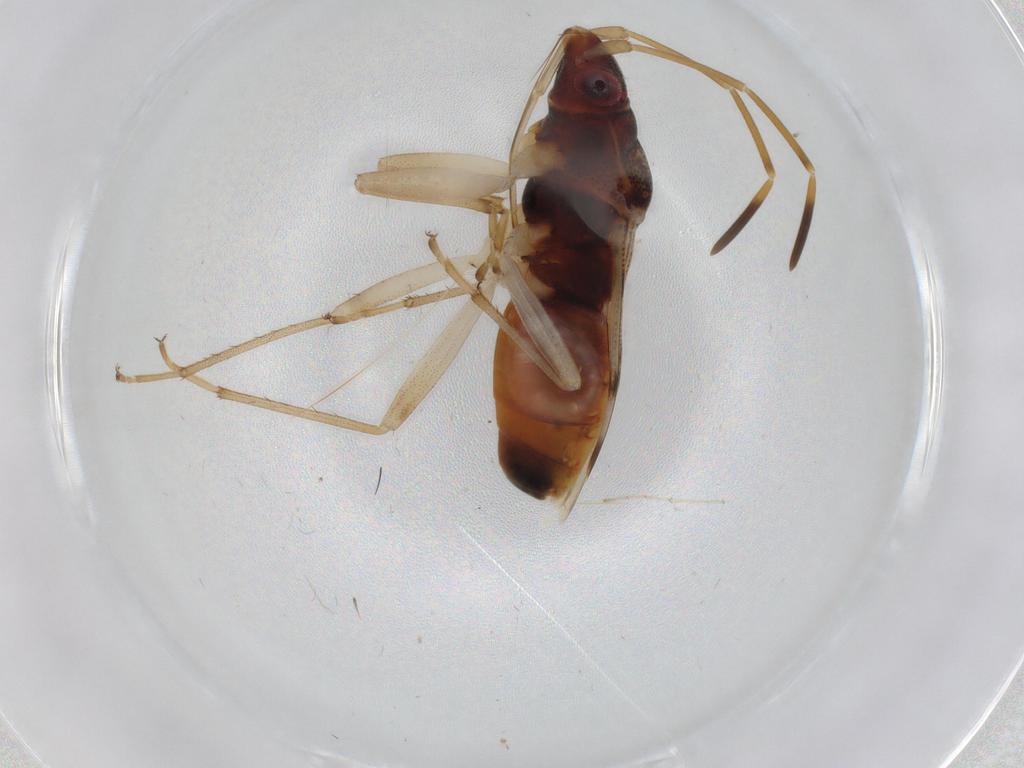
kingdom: Animalia
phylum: Arthropoda
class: Insecta
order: Hemiptera
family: Rhyparochromidae
